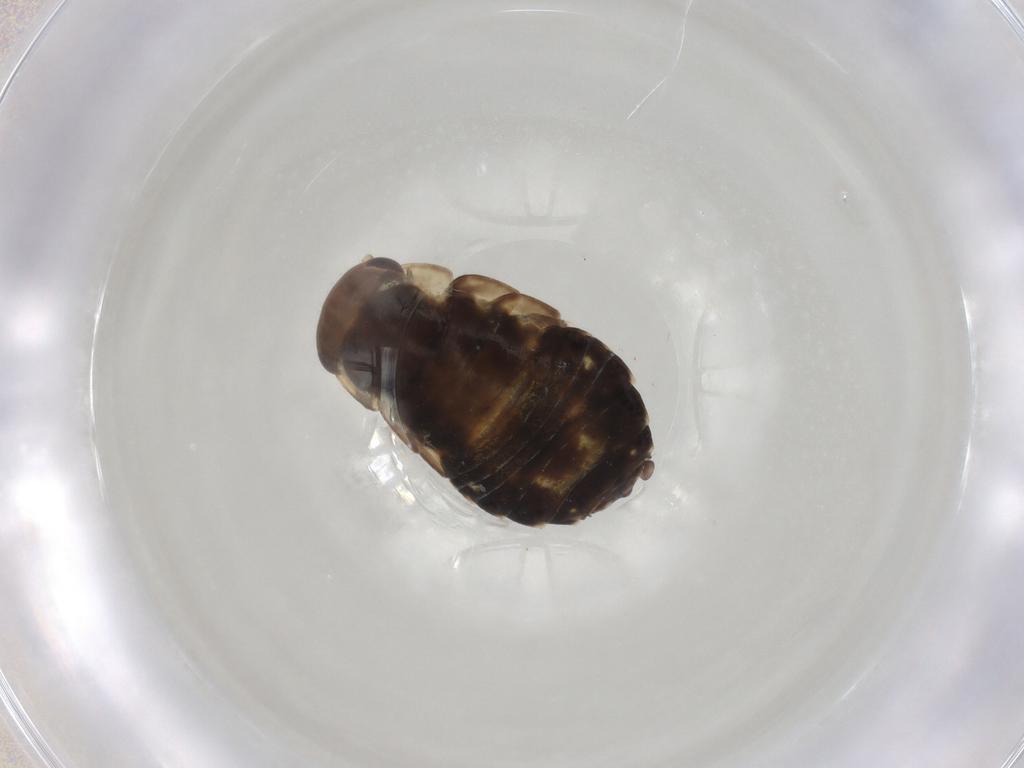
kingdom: Animalia
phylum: Arthropoda
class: Insecta
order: Blattodea
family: Ectobiidae
